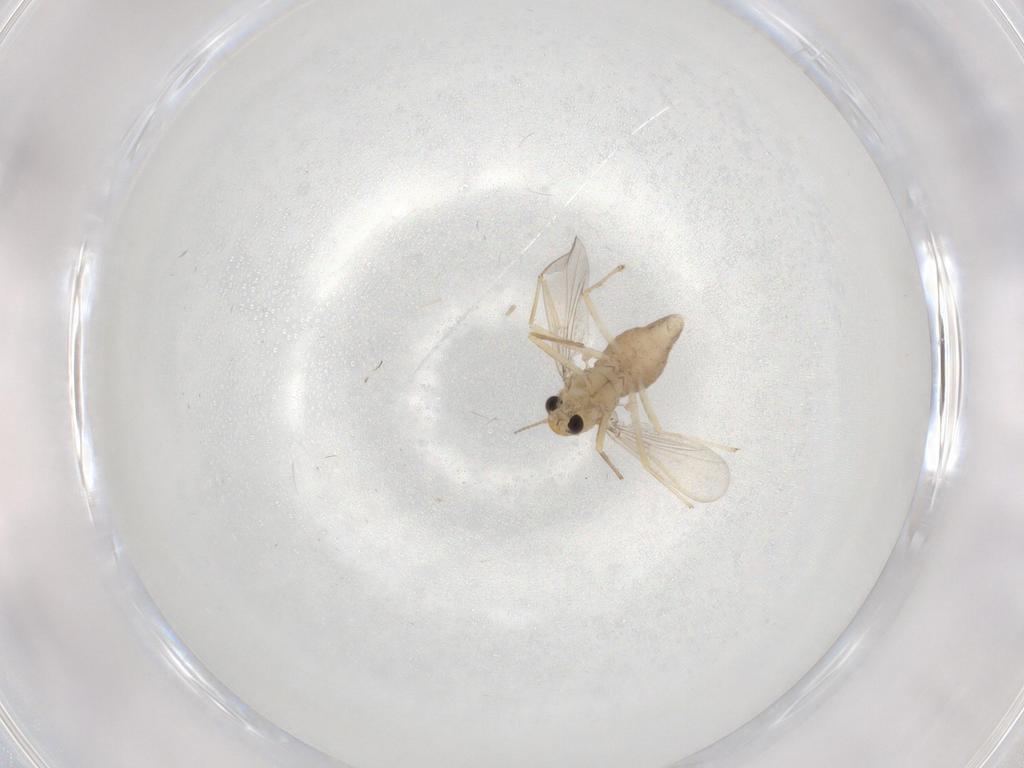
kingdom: Animalia
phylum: Arthropoda
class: Insecta
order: Diptera
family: Chironomidae
